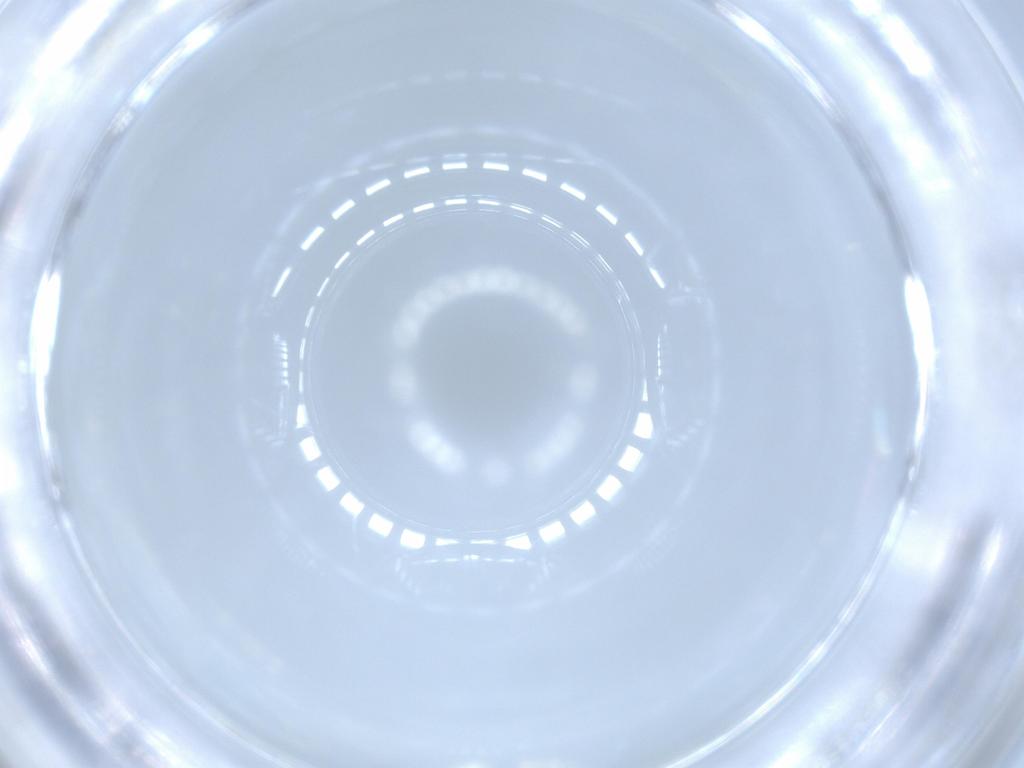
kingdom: Animalia
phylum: Arthropoda
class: Insecta
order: Diptera
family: Cecidomyiidae
